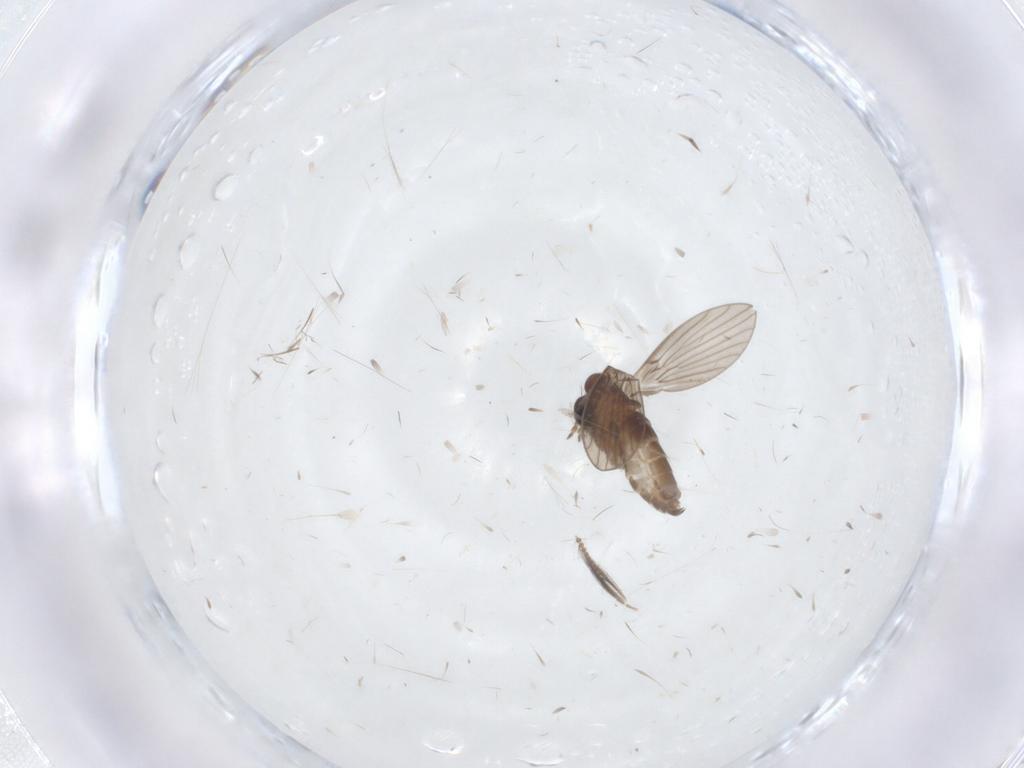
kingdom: Animalia
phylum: Arthropoda
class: Insecta
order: Diptera
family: Ceratopogonidae
